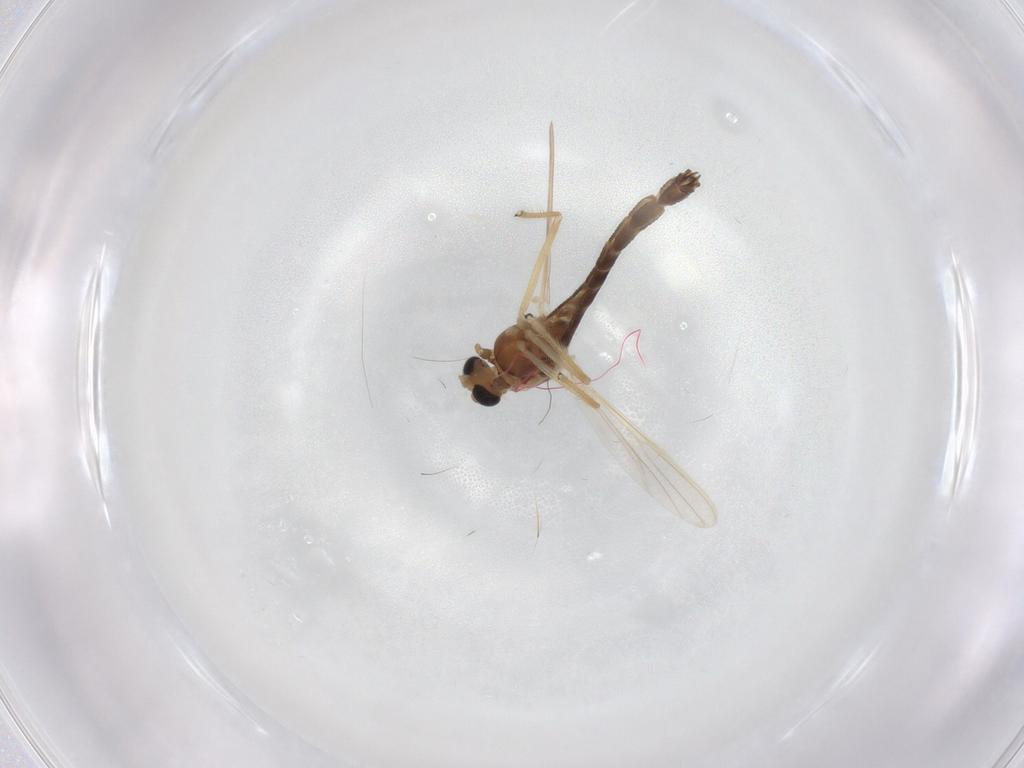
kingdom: Animalia
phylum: Arthropoda
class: Insecta
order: Diptera
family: Chironomidae
